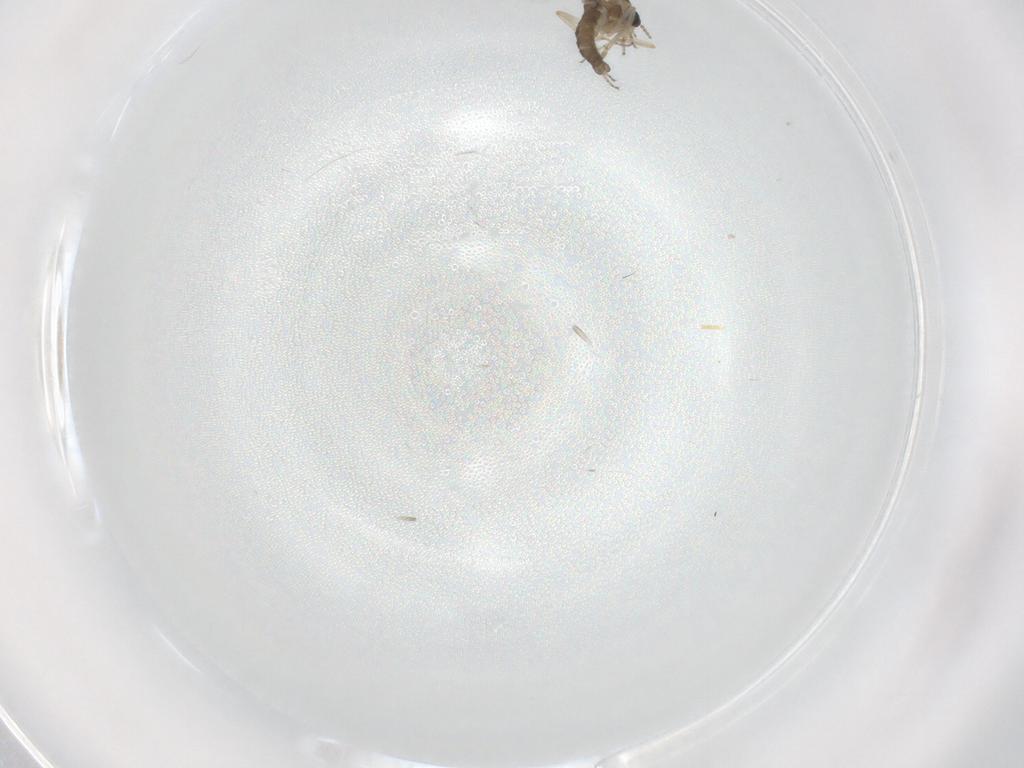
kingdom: Animalia
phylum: Arthropoda
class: Insecta
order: Diptera
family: Ceratopogonidae
